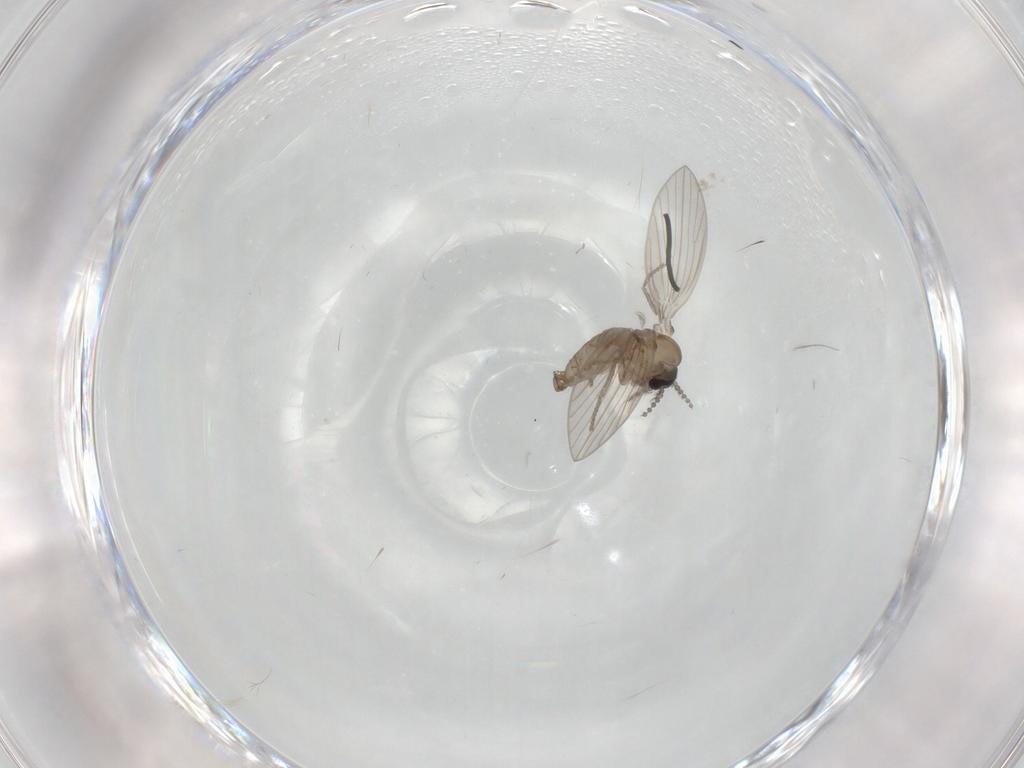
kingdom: Animalia
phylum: Arthropoda
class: Insecta
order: Diptera
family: Psychodidae
